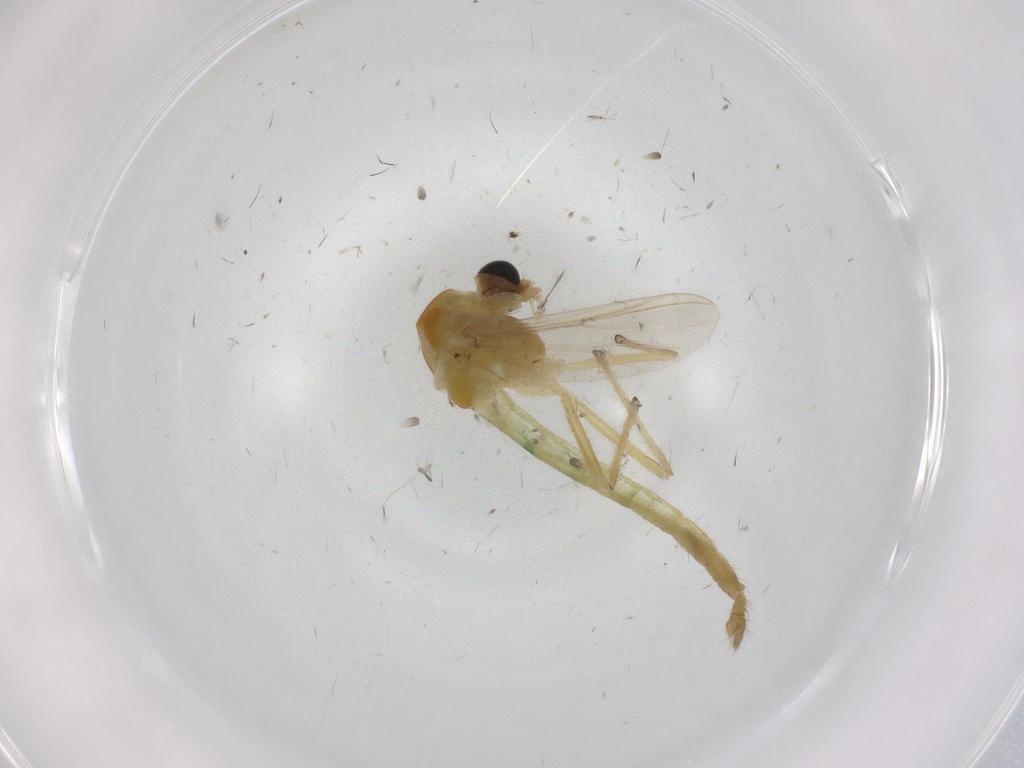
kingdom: Animalia
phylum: Arthropoda
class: Insecta
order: Diptera
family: Chironomidae
